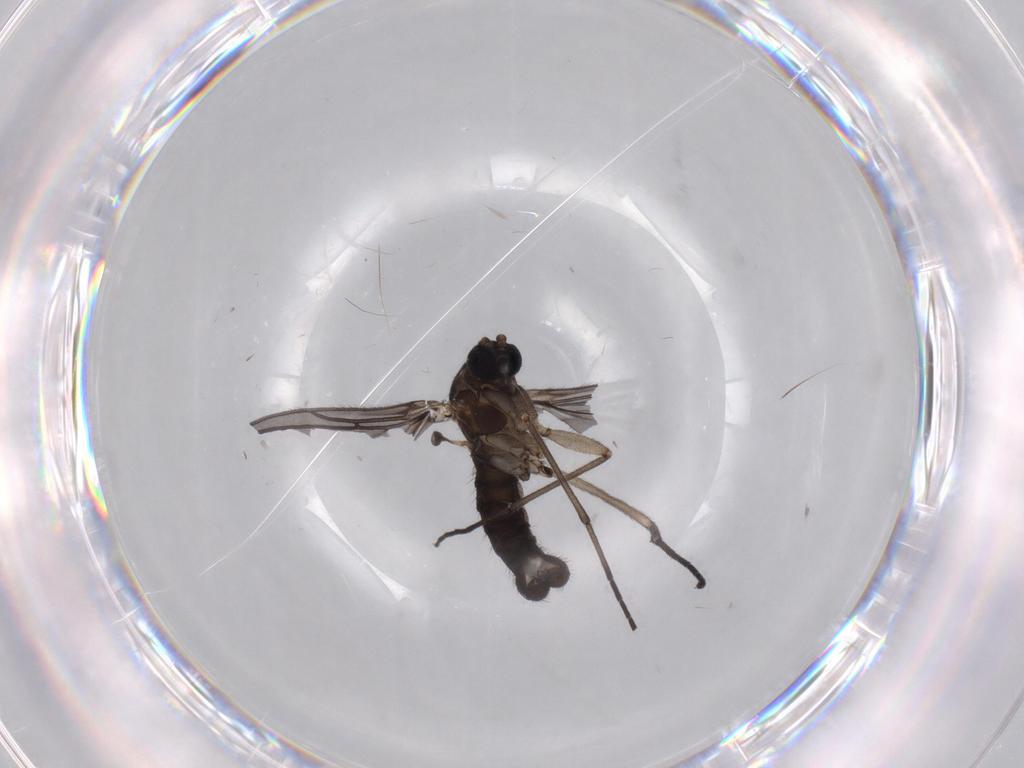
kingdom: Animalia
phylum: Arthropoda
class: Insecta
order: Diptera
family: Sciaridae
